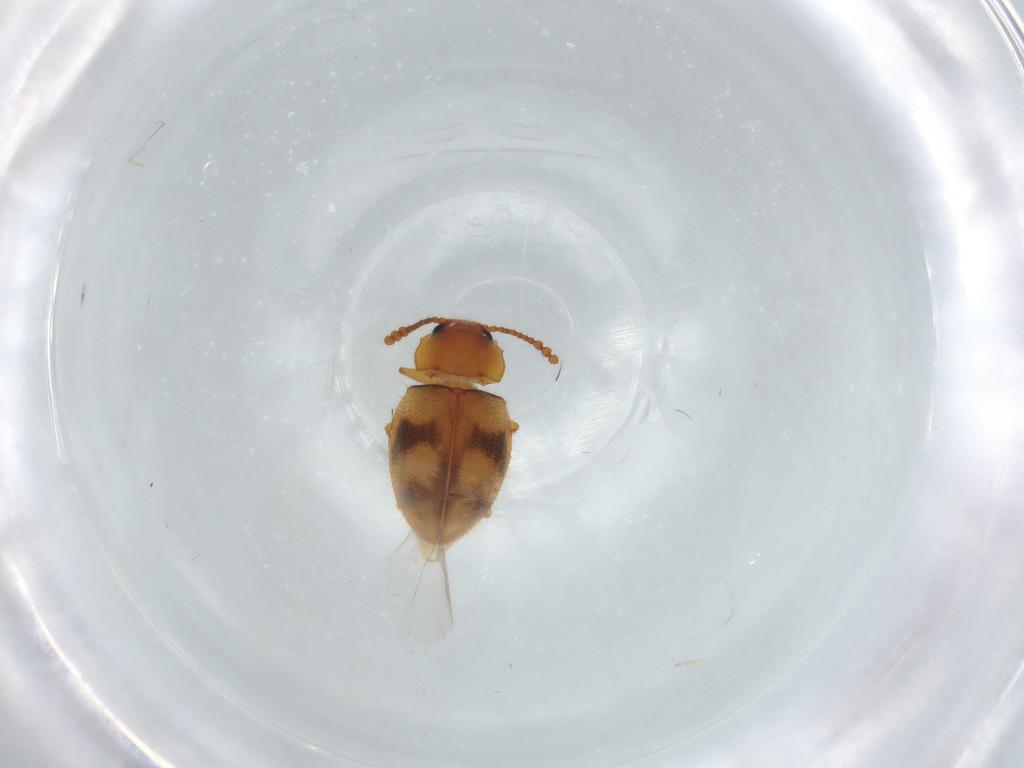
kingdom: Animalia
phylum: Arthropoda
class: Insecta
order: Coleoptera
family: Erotylidae
